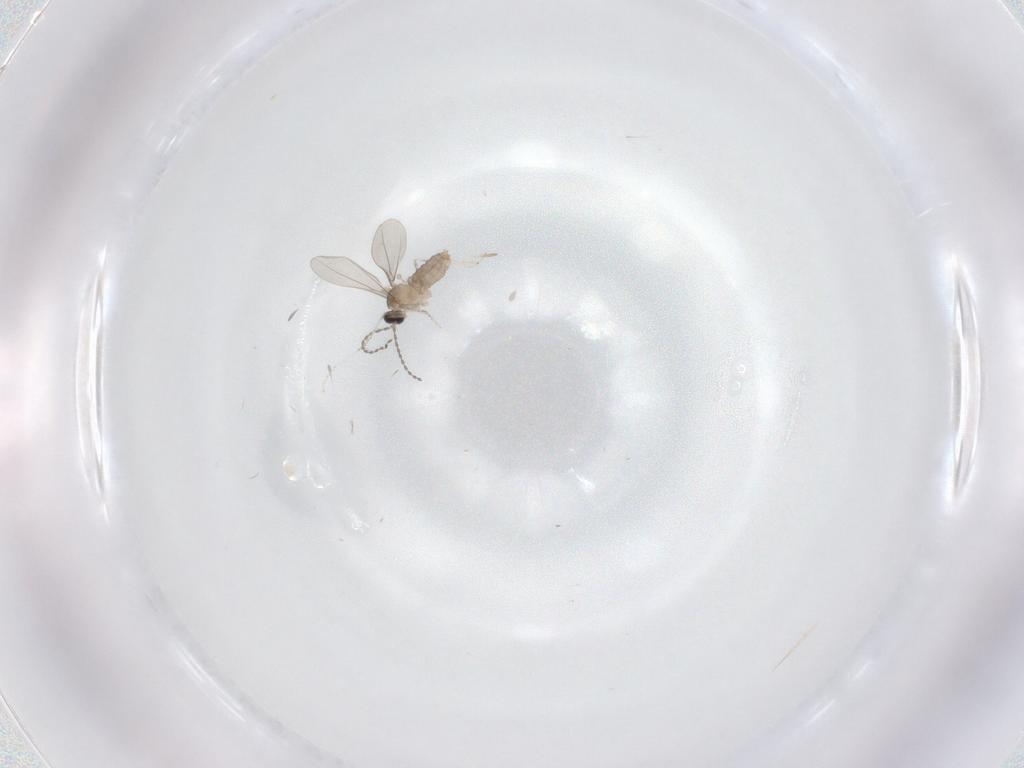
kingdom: Animalia
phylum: Arthropoda
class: Insecta
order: Diptera
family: Cecidomyiidae
